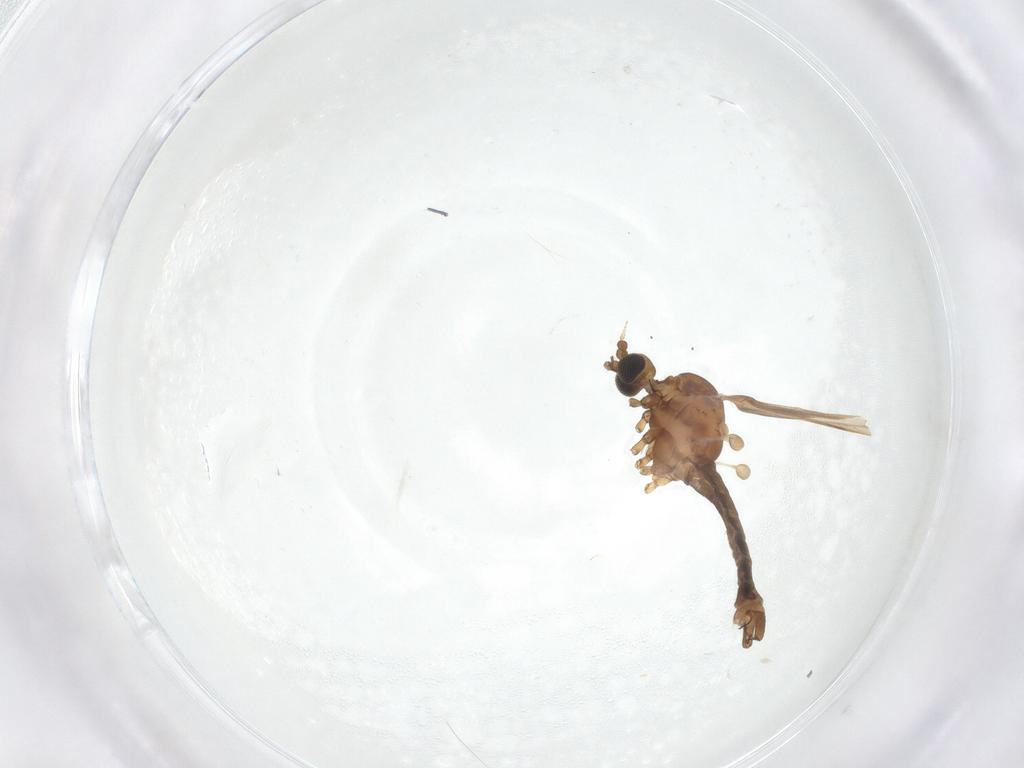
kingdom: Animalia
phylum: Arthropoda
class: Insecta
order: Diptera
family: Limoniidae
